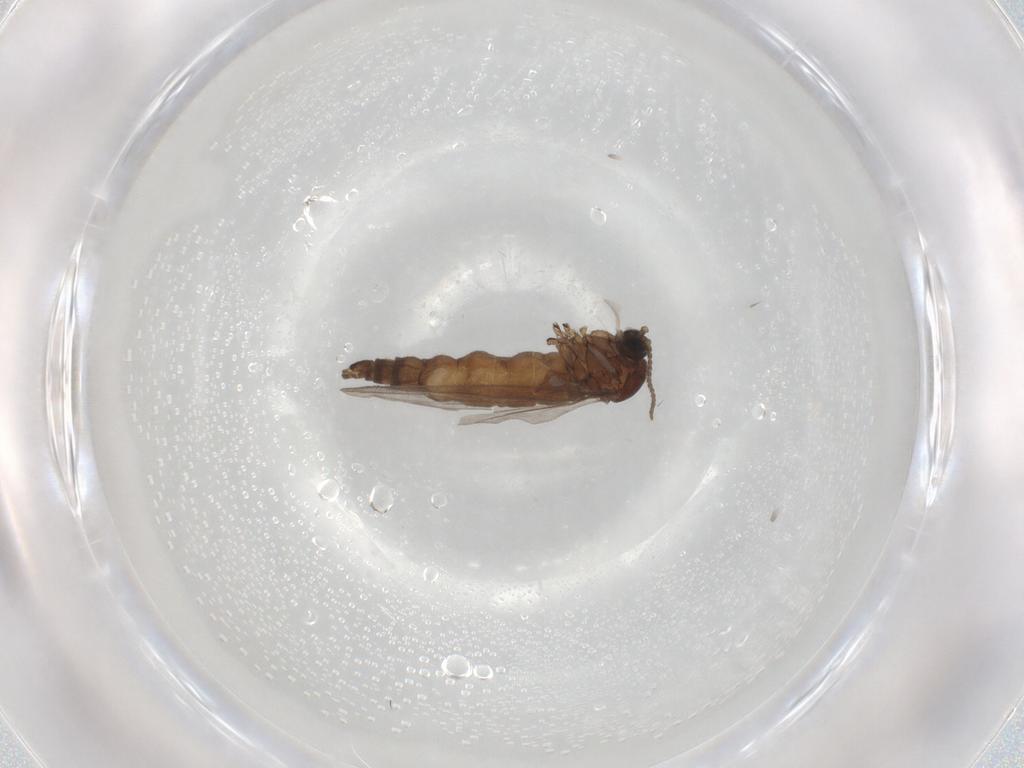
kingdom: Animalia
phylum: Arthropoda
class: Insecta
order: Diptera
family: Sciaridae
